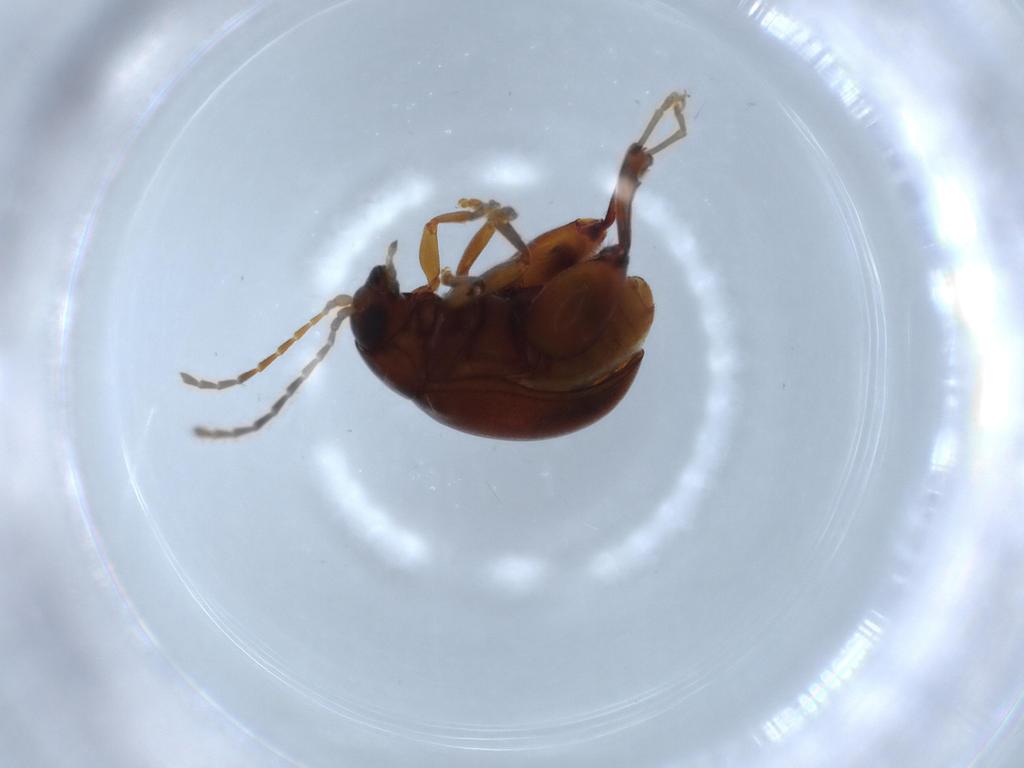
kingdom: Animalia
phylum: Arthropoda
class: Insecta
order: Coleoptera
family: Chrysomelidae
